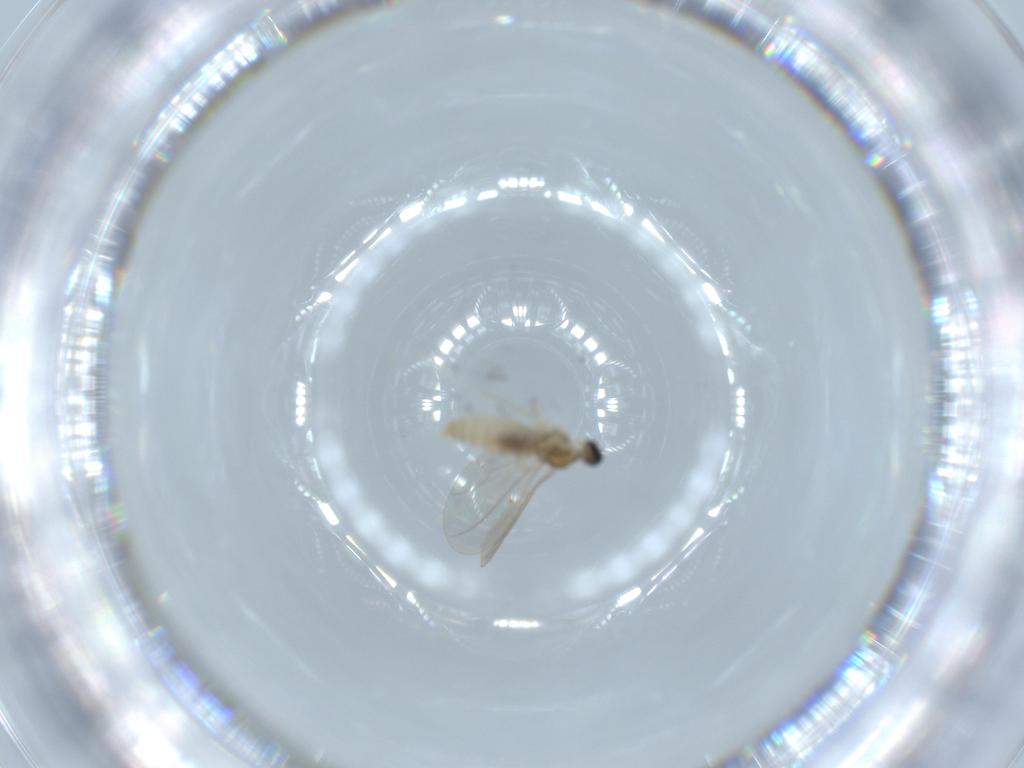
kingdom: Animalia
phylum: Arthropoda
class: Insecta
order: Diptera
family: Cecidomyiidae
